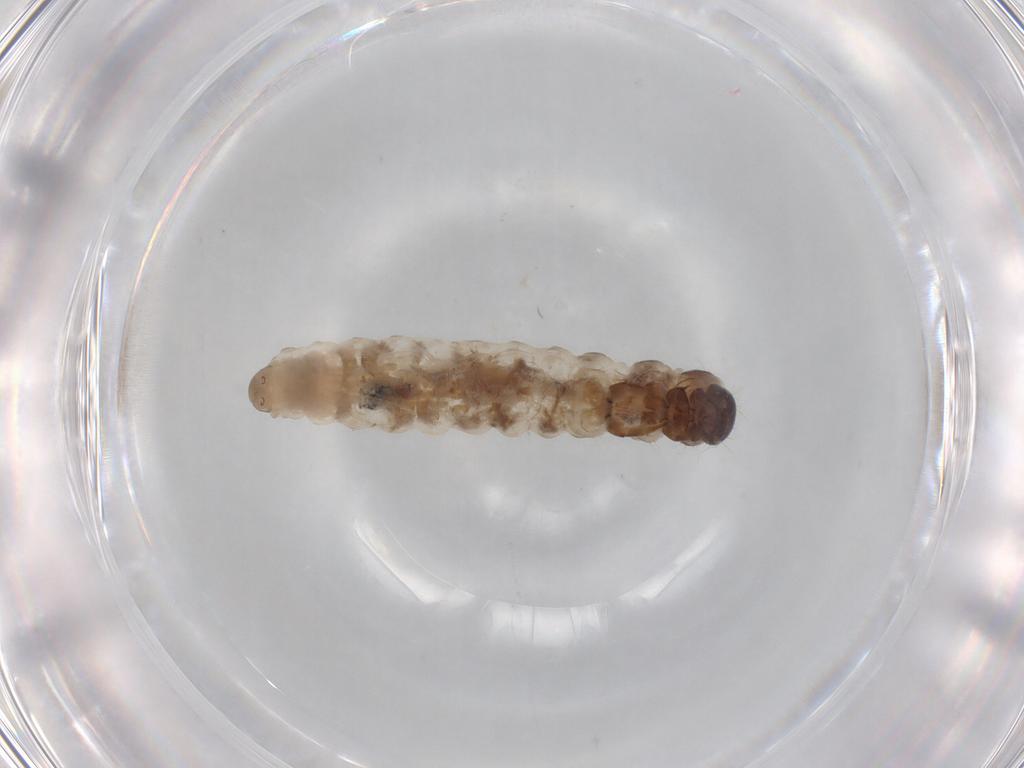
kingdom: Animalia
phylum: Arthropoda
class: Insecta
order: Lepidoptera
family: Psychidae
